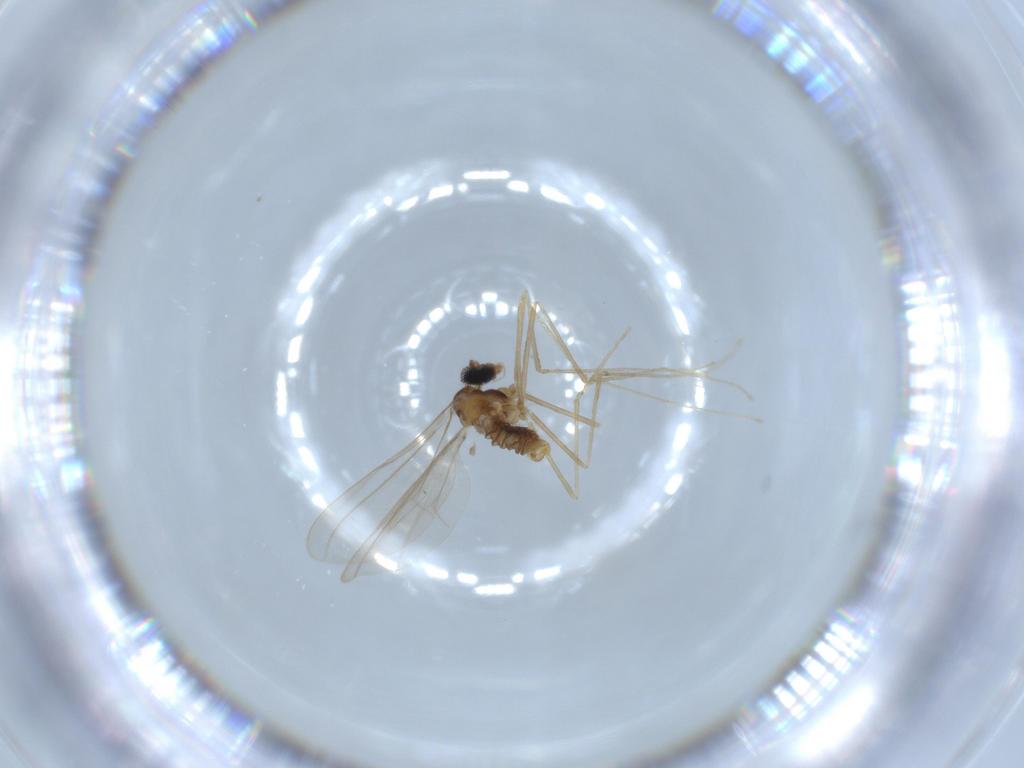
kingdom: Animalia
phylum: Arthropoda
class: Insecta
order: Diptera
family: Cecidomyiidae
